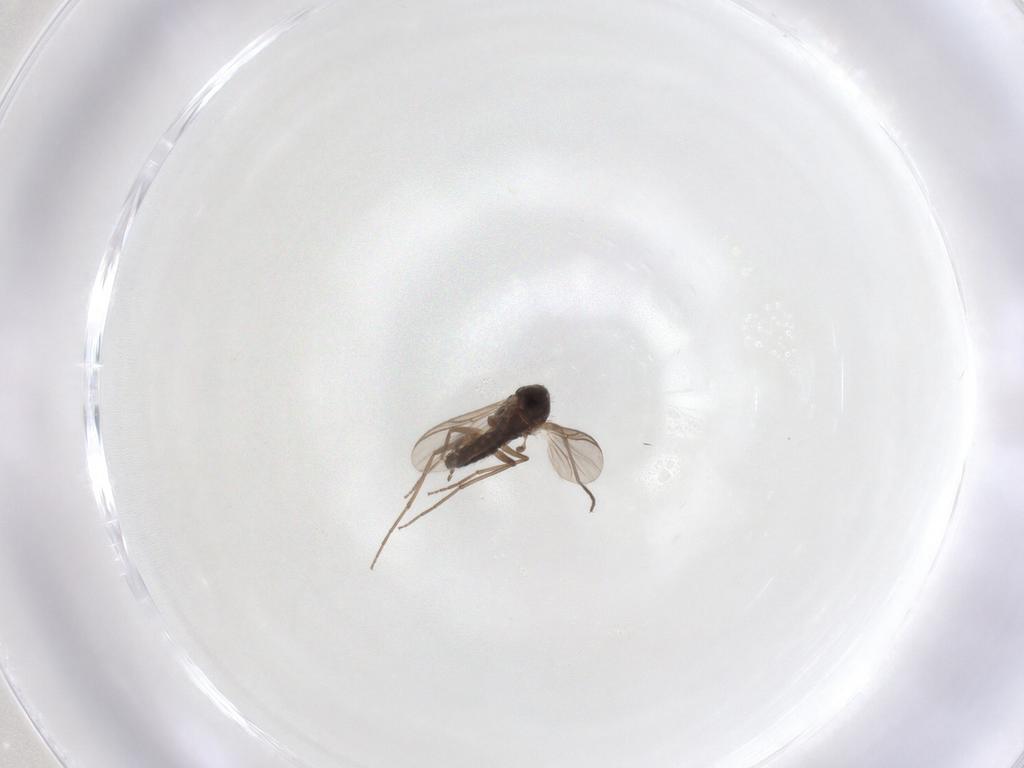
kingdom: Animalia
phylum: Arthropoda
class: Insecta
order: Diptera
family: Chironomidae
